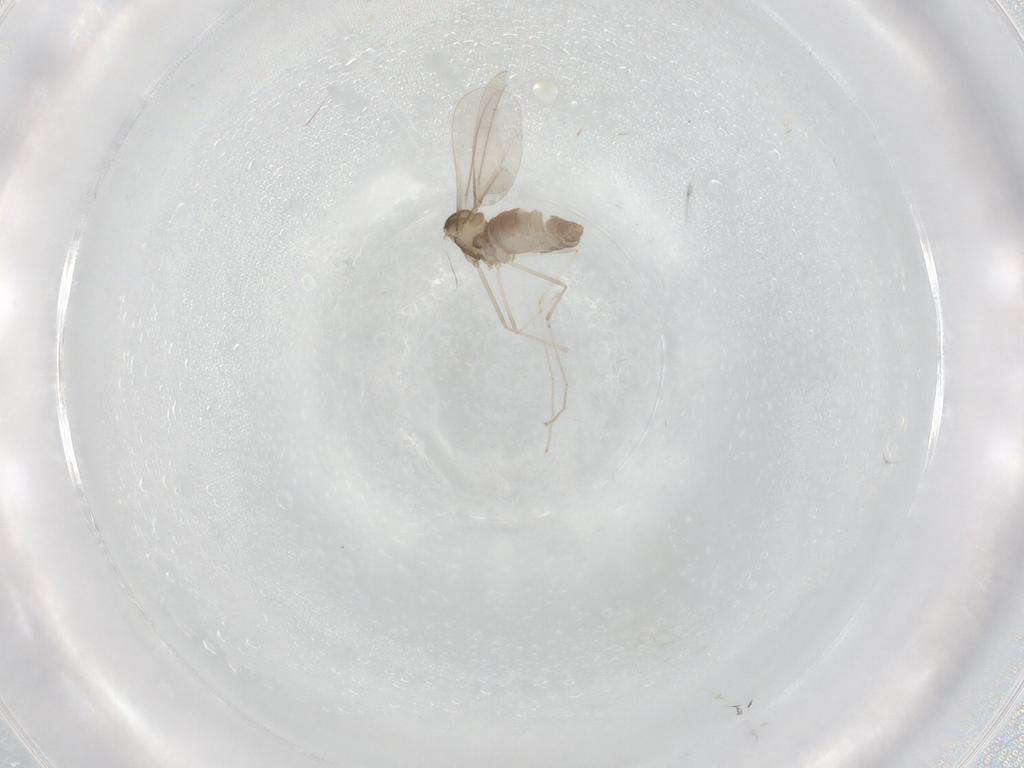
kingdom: Animalia
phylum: Arthropoda
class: Insecta
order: Diptera
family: Cecidomyiidae
